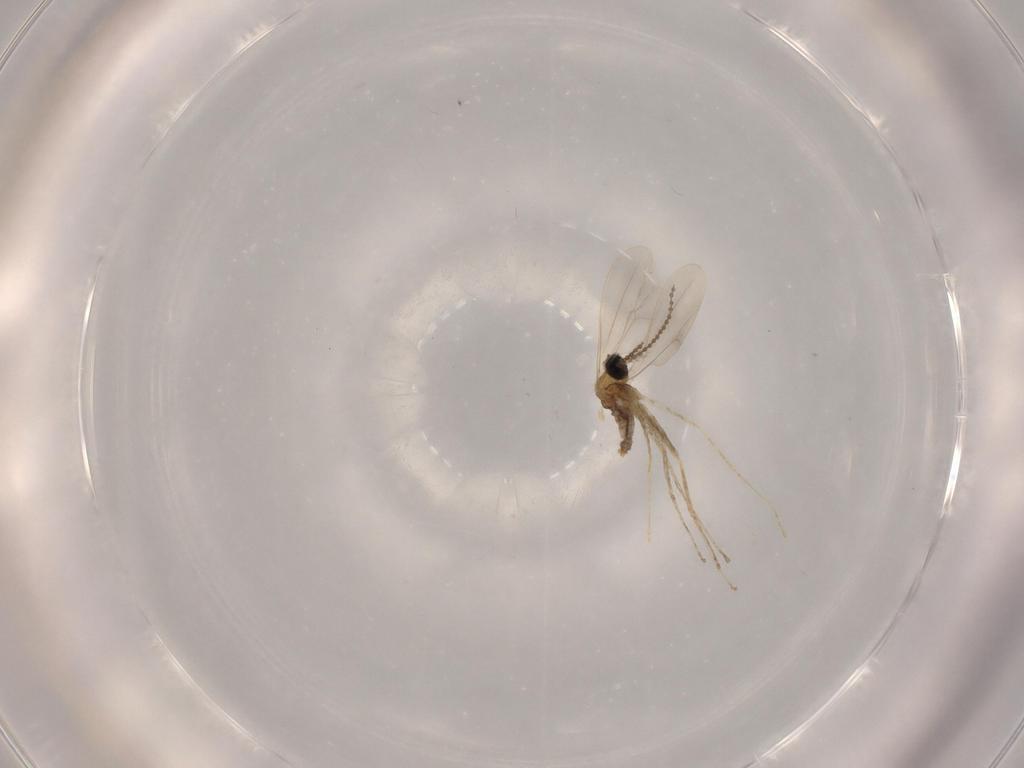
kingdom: Animalia
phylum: Arthropoda
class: Insecta
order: Diptera
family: Cecidomyiidae
